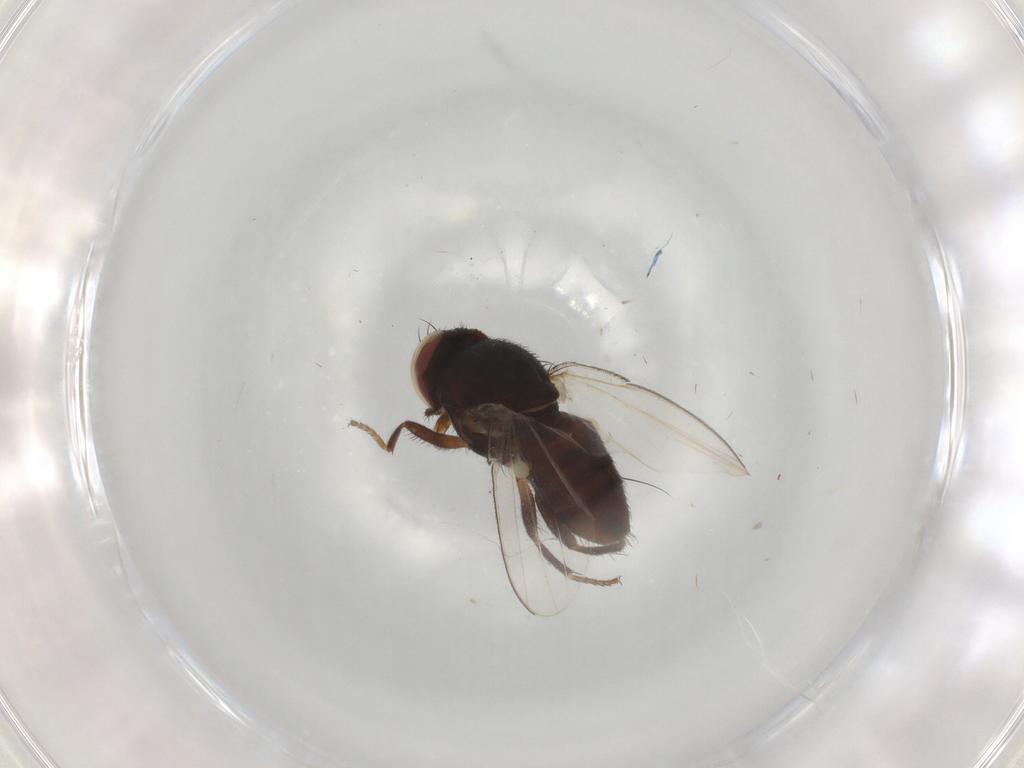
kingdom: Animalia
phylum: Arthropoda
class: Insecta
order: Diptera
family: Milichiidae
